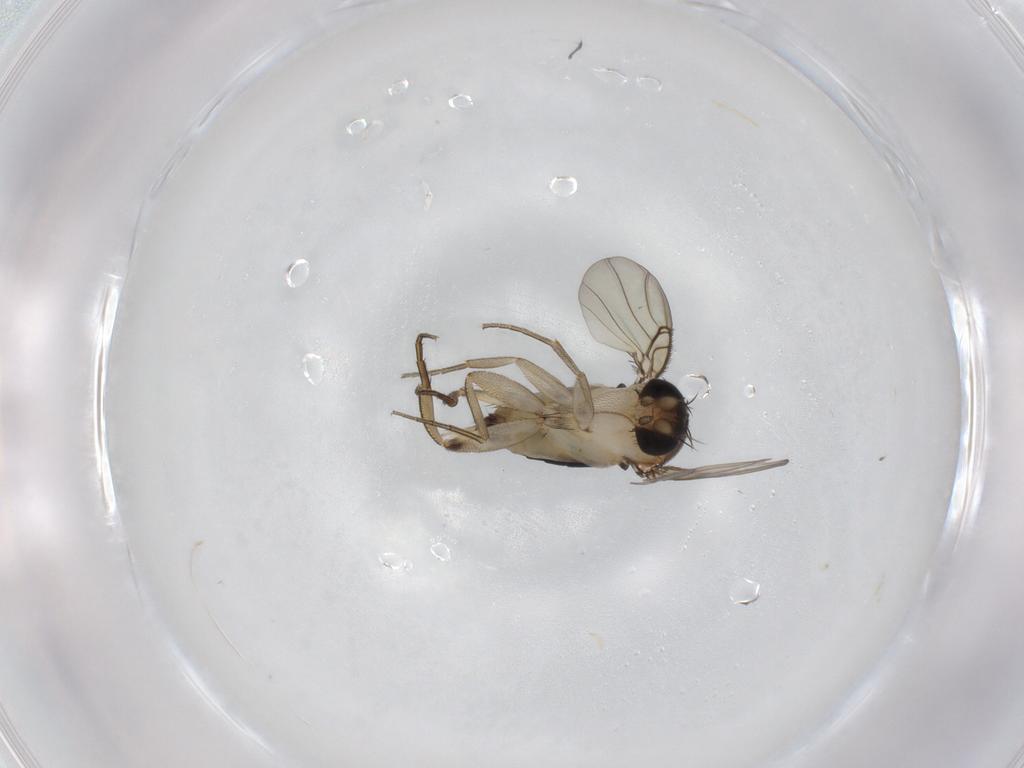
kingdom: Animalia
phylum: Arthropoda
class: Insecta
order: Diptera
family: Phoridae
